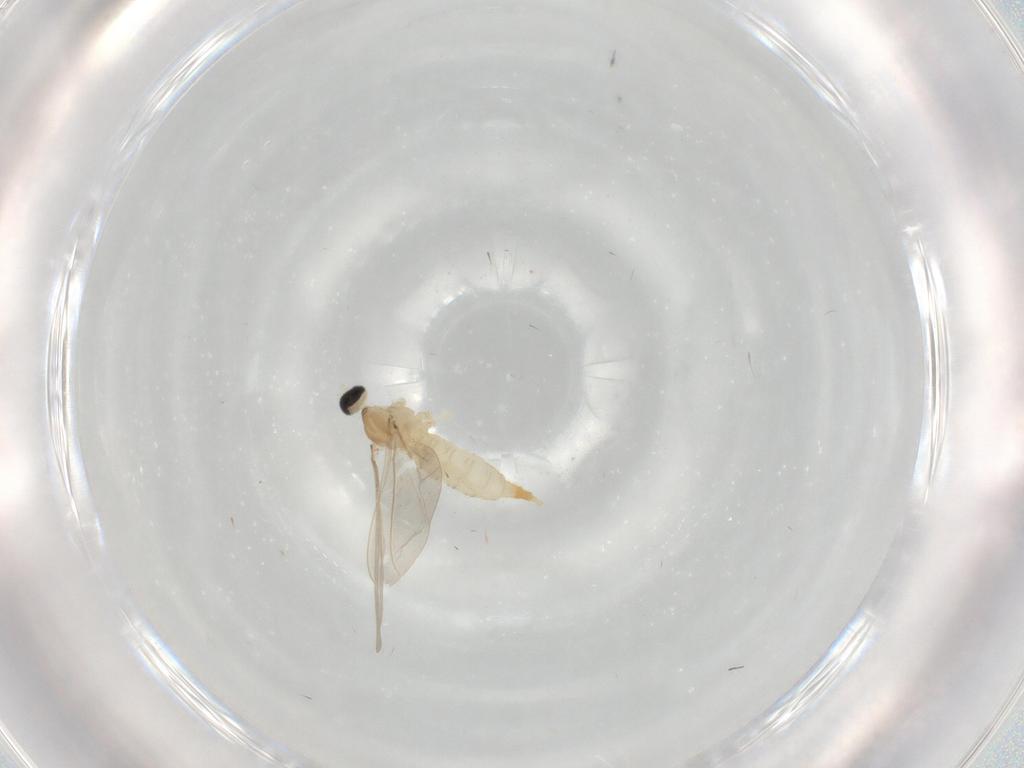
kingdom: Animalia
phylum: Arthropoda
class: Insecta
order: Diptera
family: Cecidomyiidae
